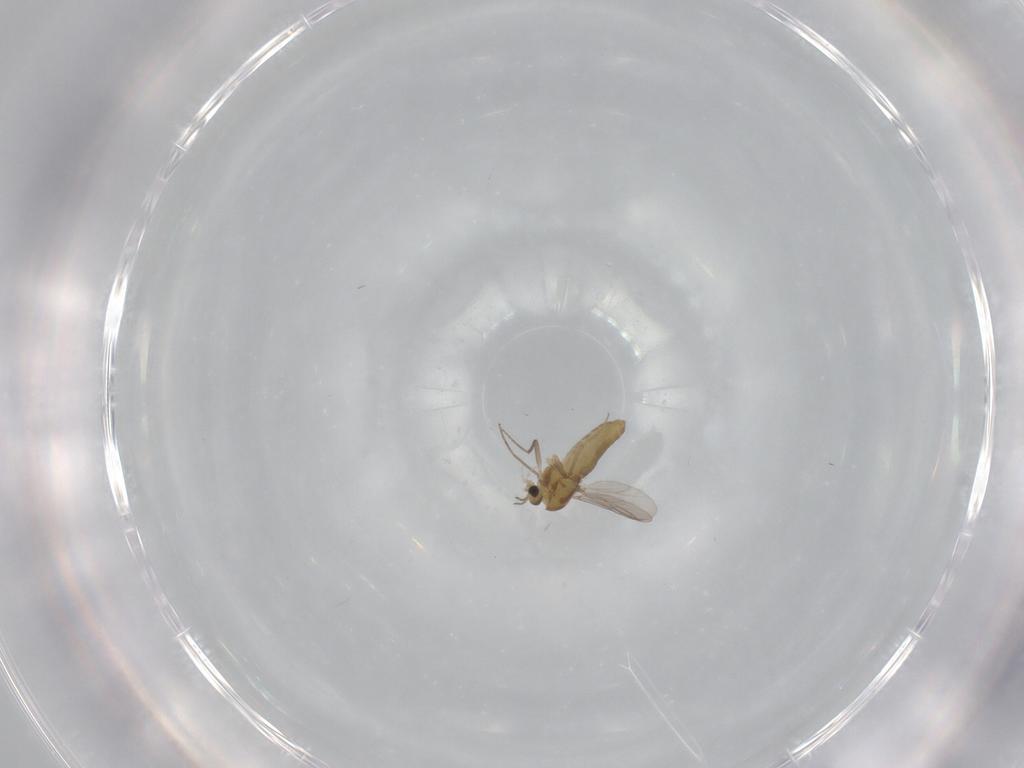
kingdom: Animalia
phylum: Arthropoda
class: Insecta
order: Diptera
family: Chironomidae
